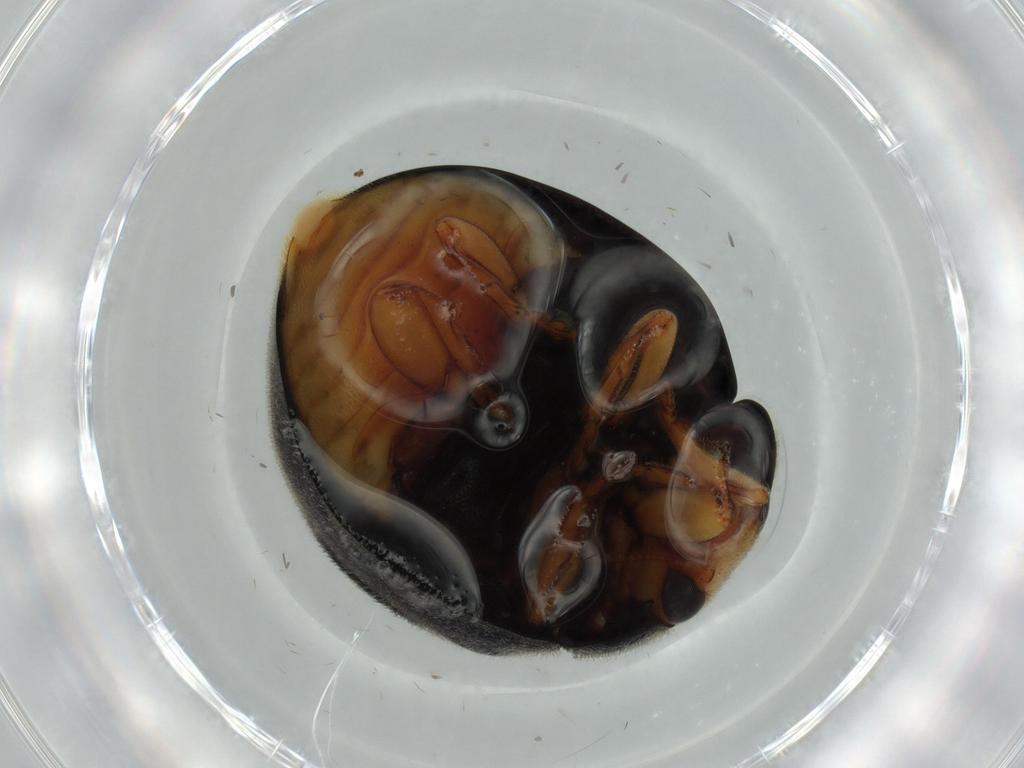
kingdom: Animalia
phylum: Arthropoda
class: Insecta
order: Coleoptera
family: Coccinellidae
